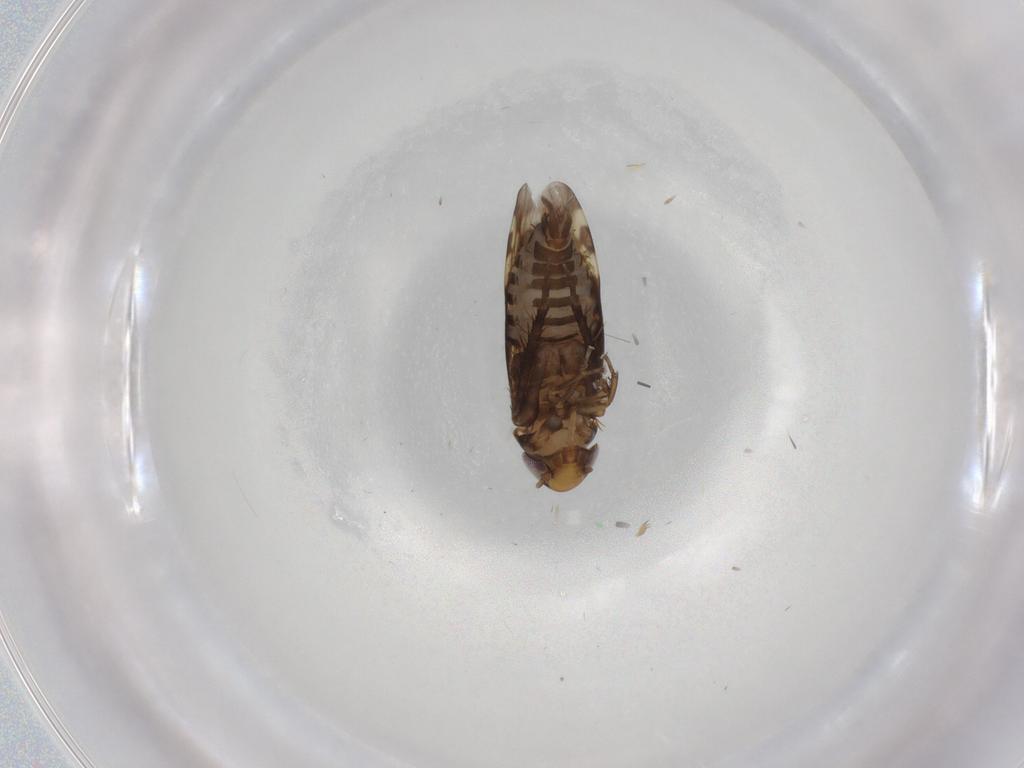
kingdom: Animalia
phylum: Arthropoda
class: Insecta
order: Hemiptera
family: Cicadellidae
